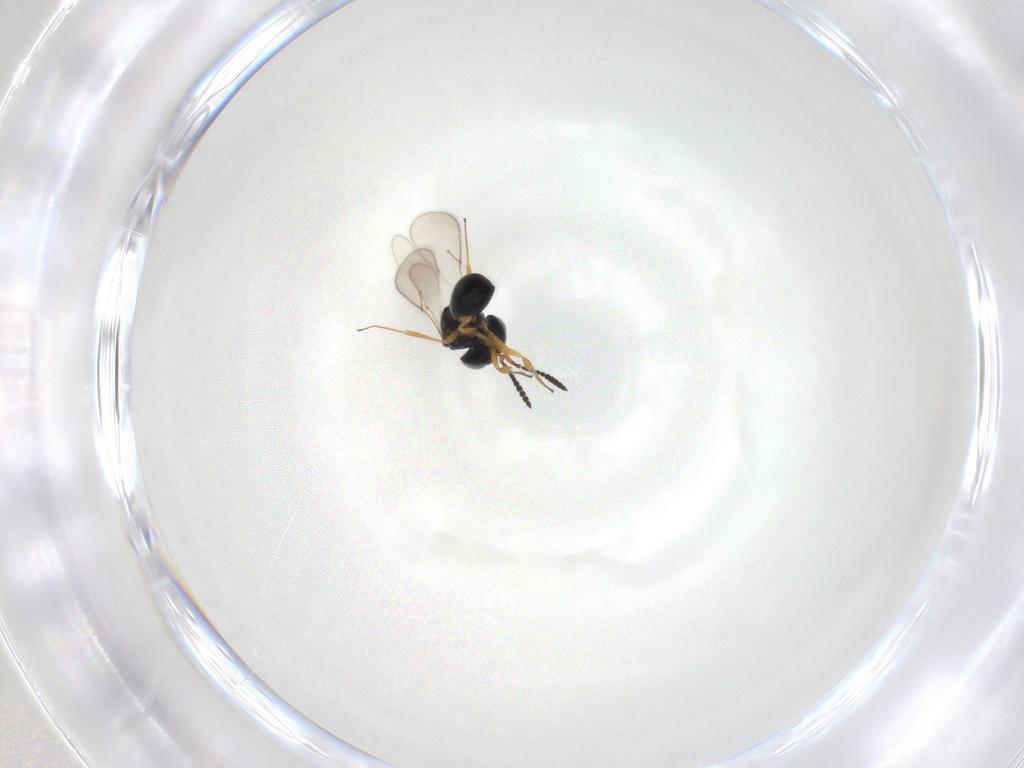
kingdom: Animalia
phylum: Arthropoda
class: Insecta
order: Hymenoptera
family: Scelionidae
